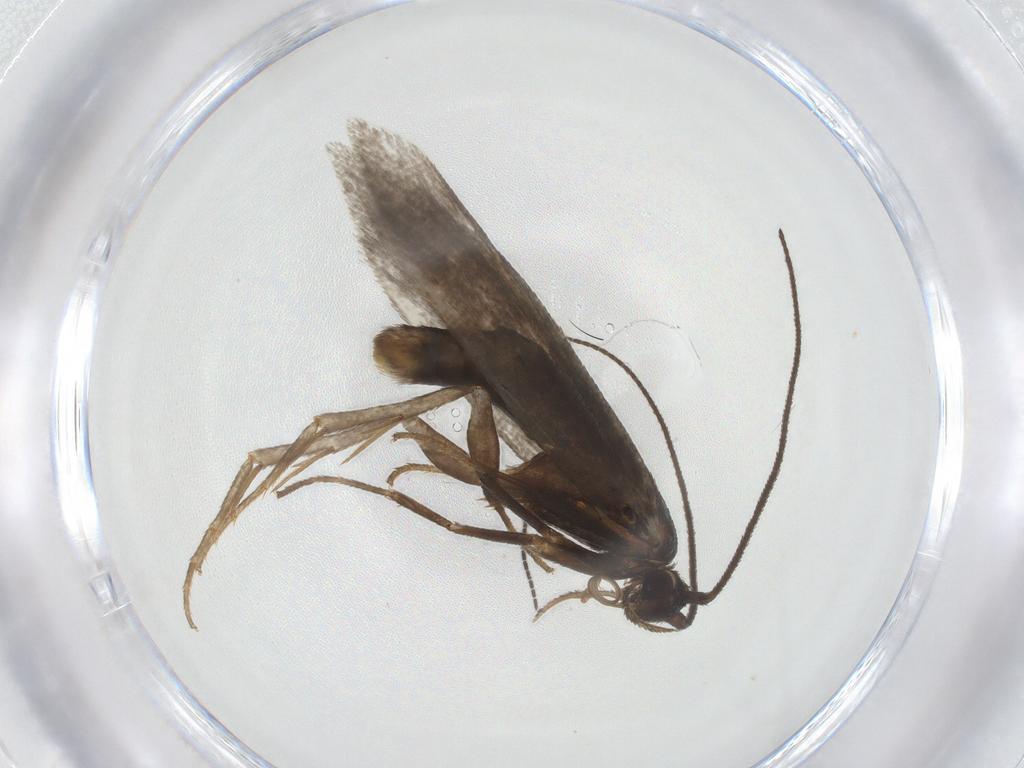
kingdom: Animalia
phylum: Arthropoda
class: Insecta
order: Lepidoptera
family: Argyresthiidae
